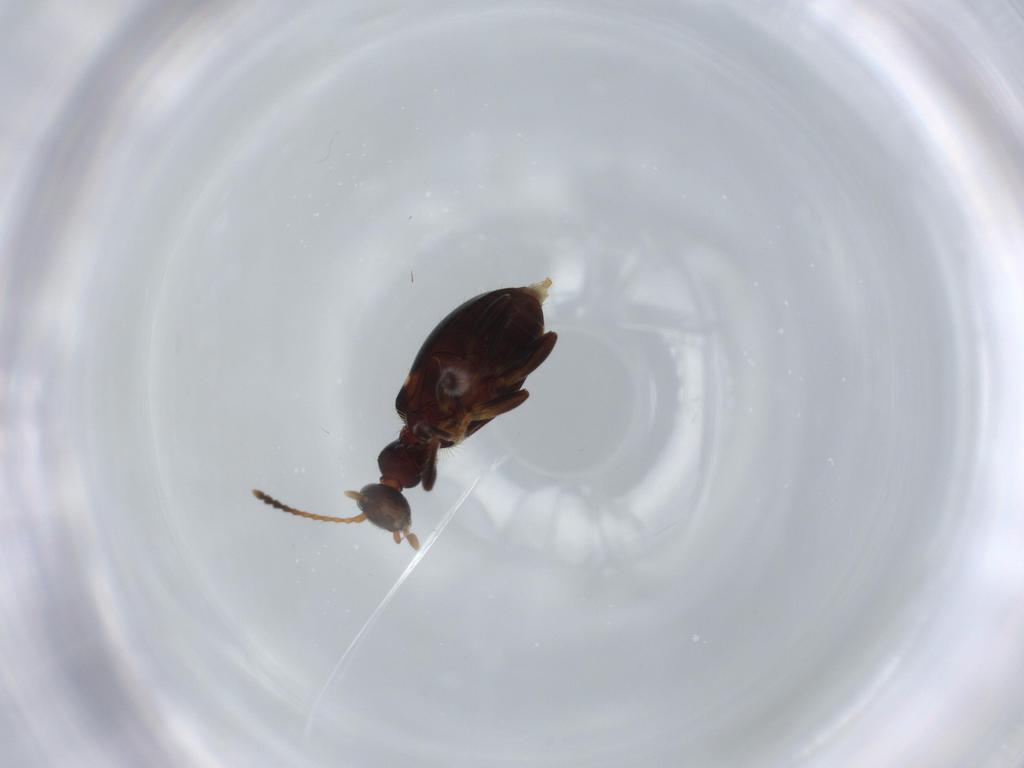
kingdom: Animalia
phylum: Arthropoda
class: Insecta
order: Coleoptera
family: Anthicidae
